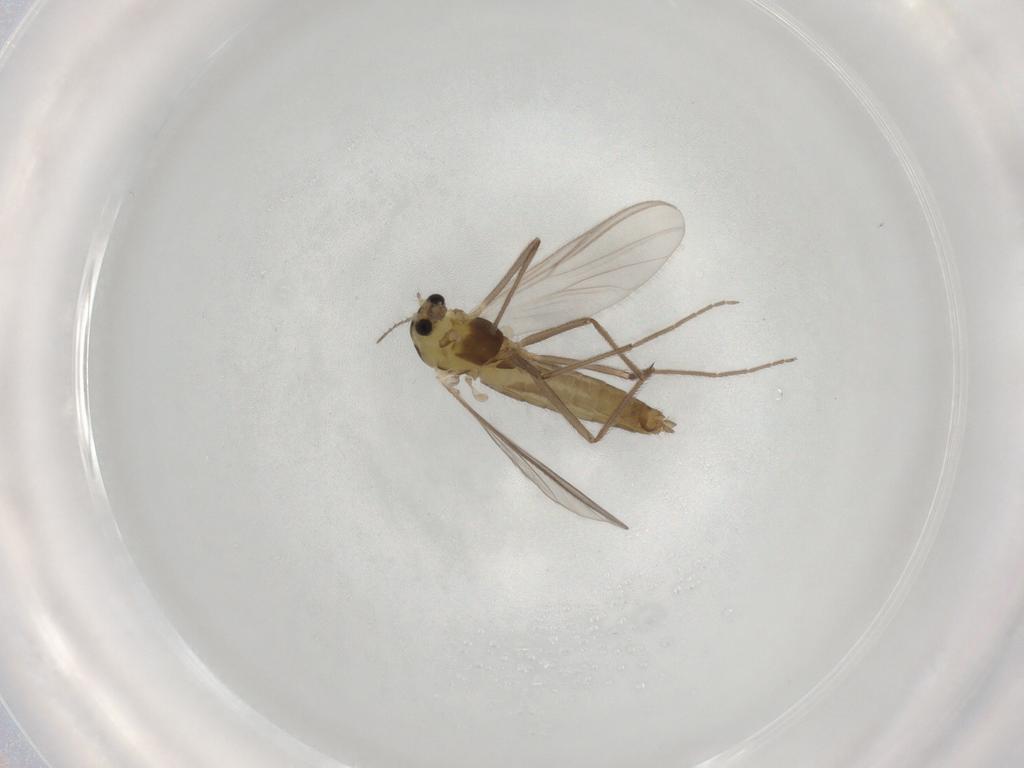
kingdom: Animalia
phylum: Arthropoda
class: Insecta
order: Diptera
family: Chironomidae
